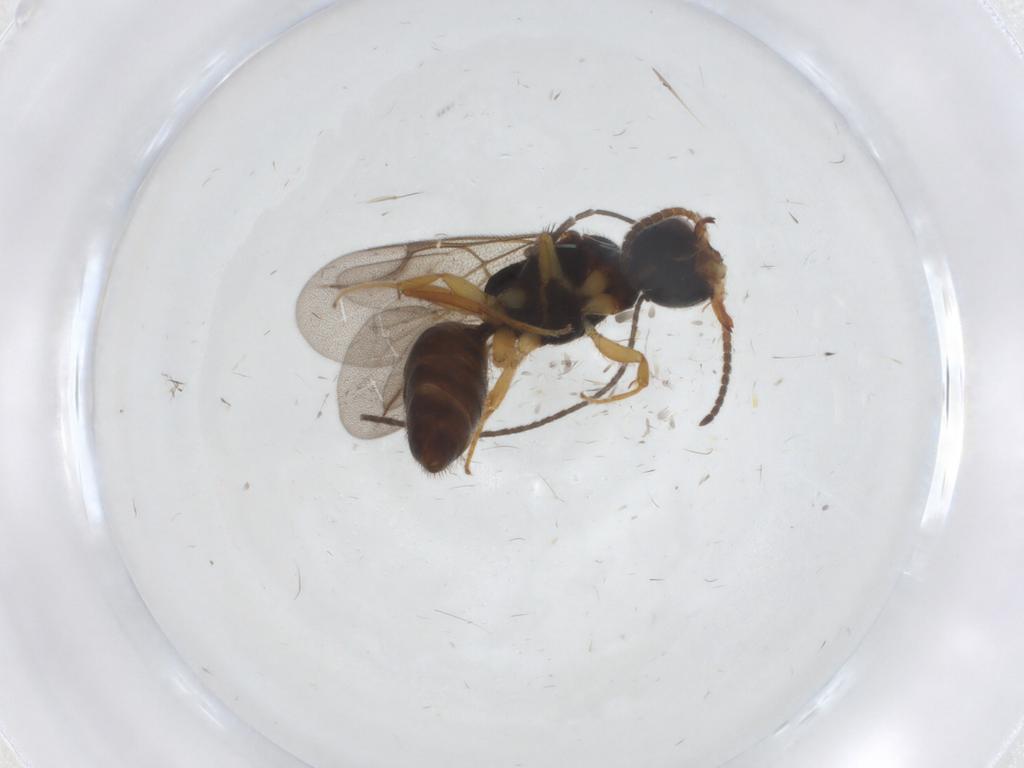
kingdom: Animalia
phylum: Arthropoda
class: Insecta
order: Hymenoptera
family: Bethylidae
